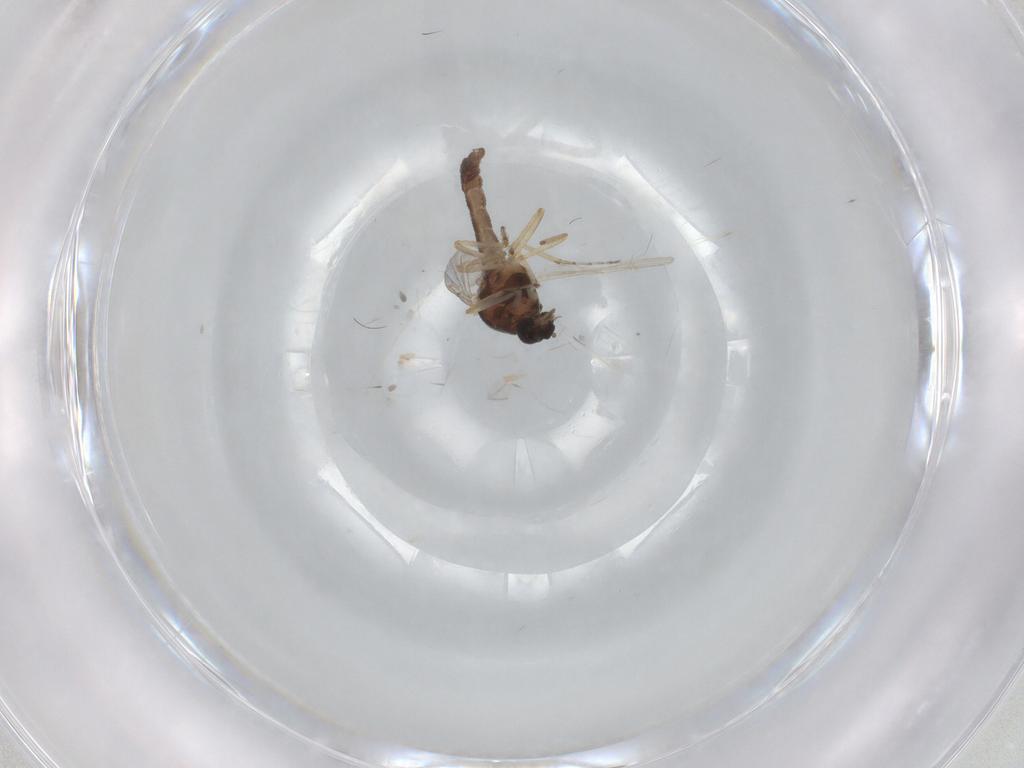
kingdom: Animalia
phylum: Arthropoda
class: Insecta
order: Diptera
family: Ceratopogonidae
